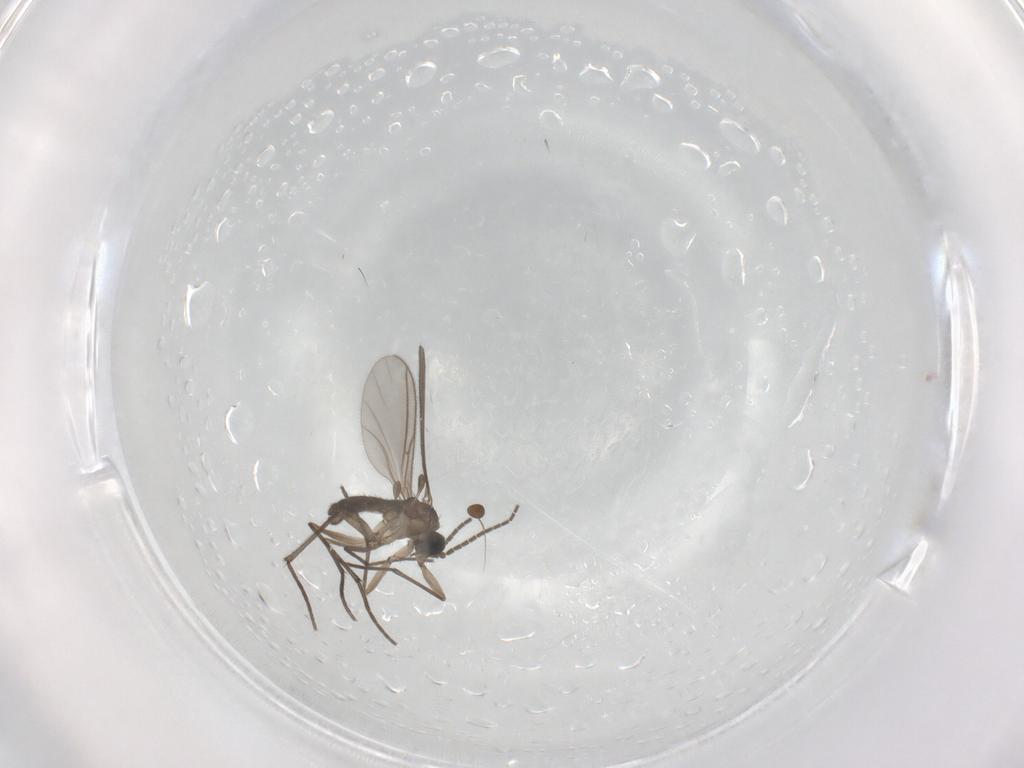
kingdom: Animalia
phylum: Arthropoda
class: Insecta
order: Diptera
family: Sciaridae
